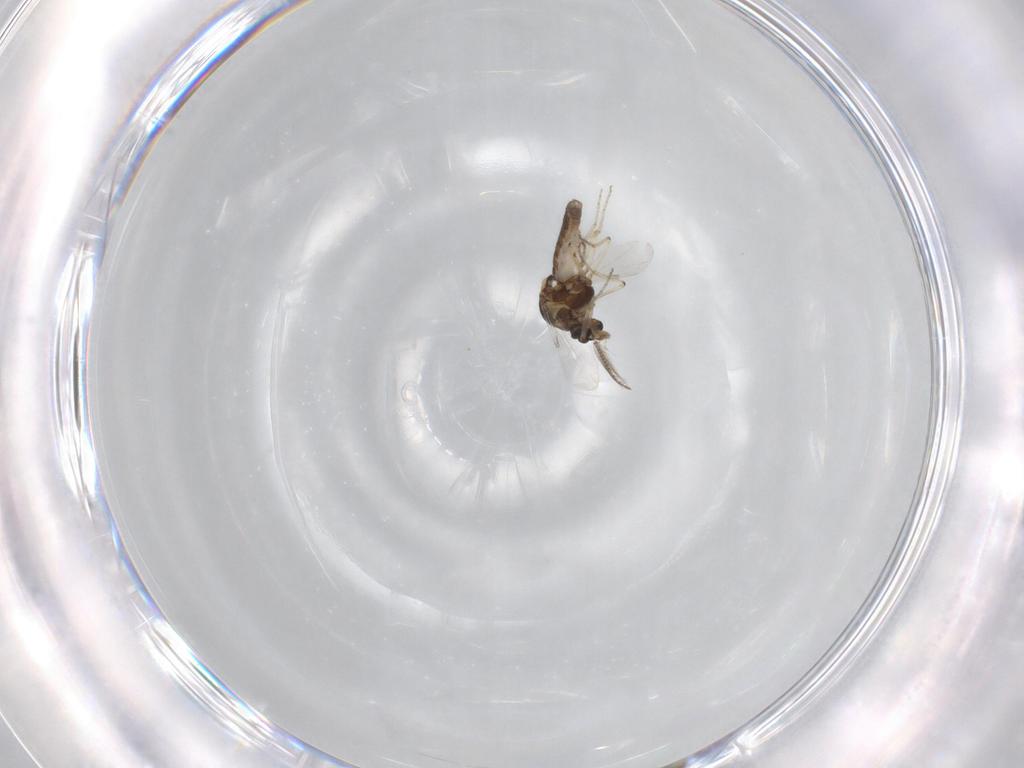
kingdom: Animalia
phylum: Arthropoda
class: Insecta
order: Diptera
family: Ceratopogonidae
